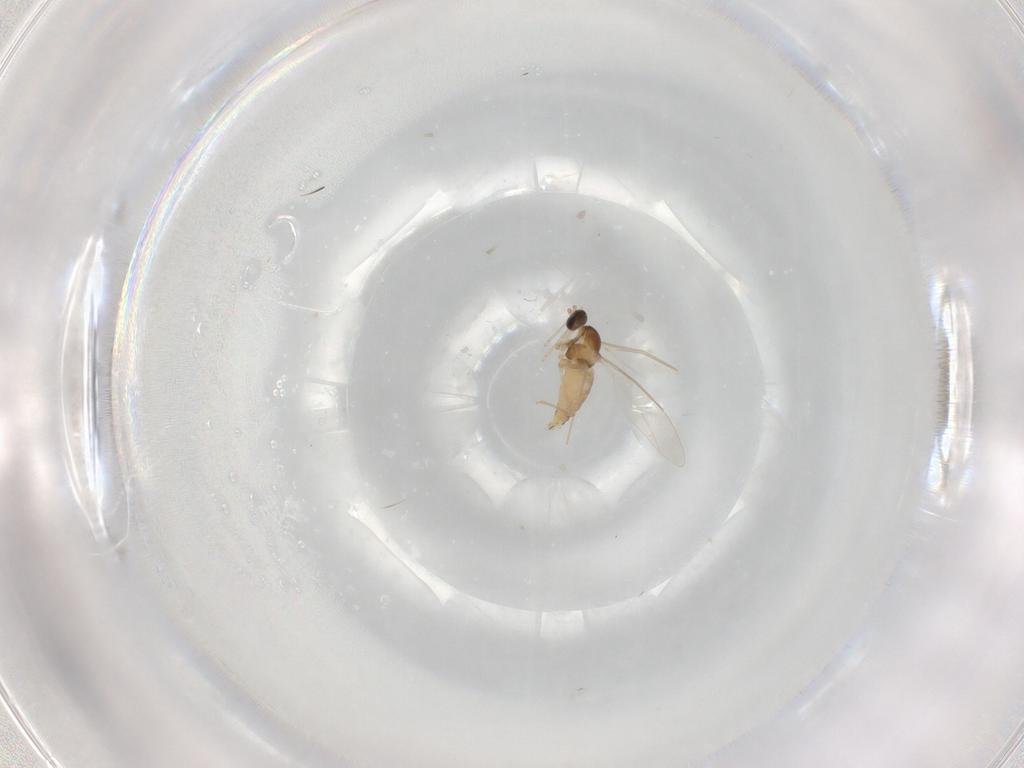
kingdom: Animalia
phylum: Arthropoda
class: Insecta
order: Diptera
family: Cecidomyiidae
